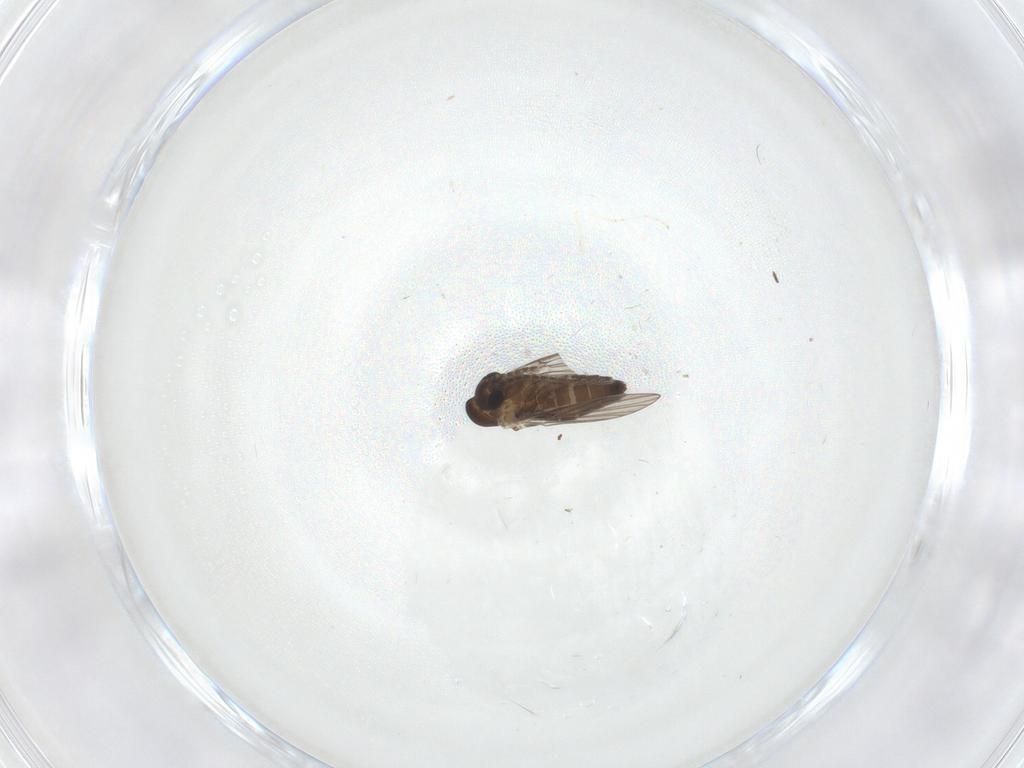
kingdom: Animalia
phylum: Arthropoda
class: Insecta
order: Diptera
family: Cecidomyiidae
